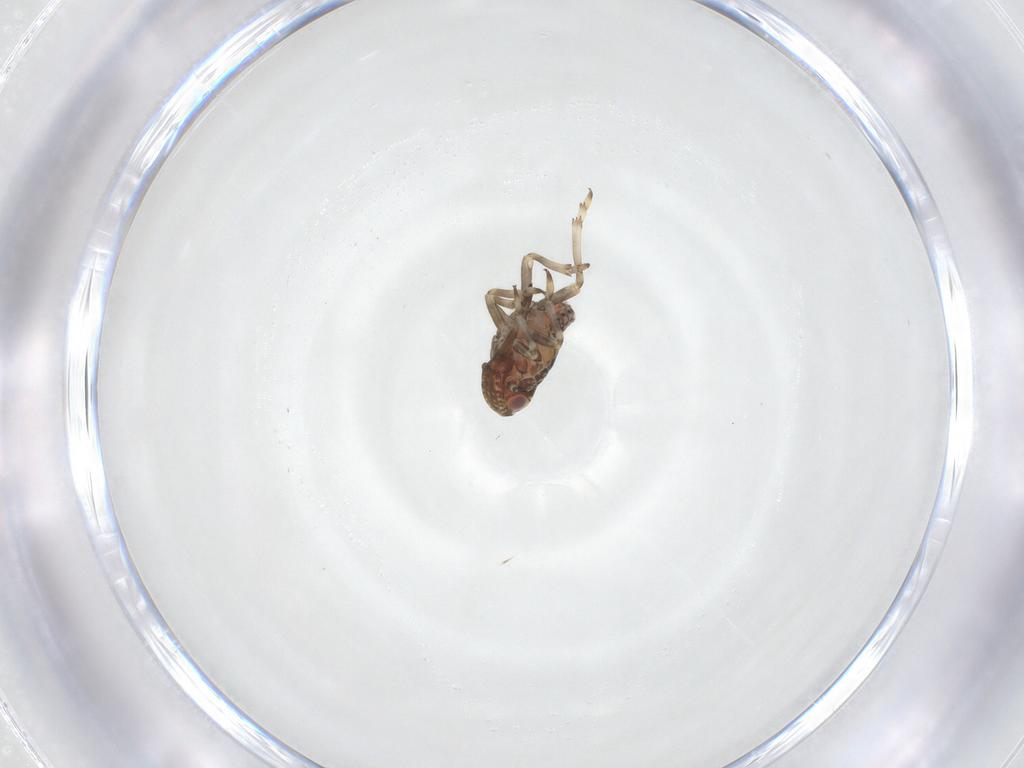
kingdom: Animalia
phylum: Arthropoda
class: Insecta
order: Hemiptera
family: Tropiduchidae
